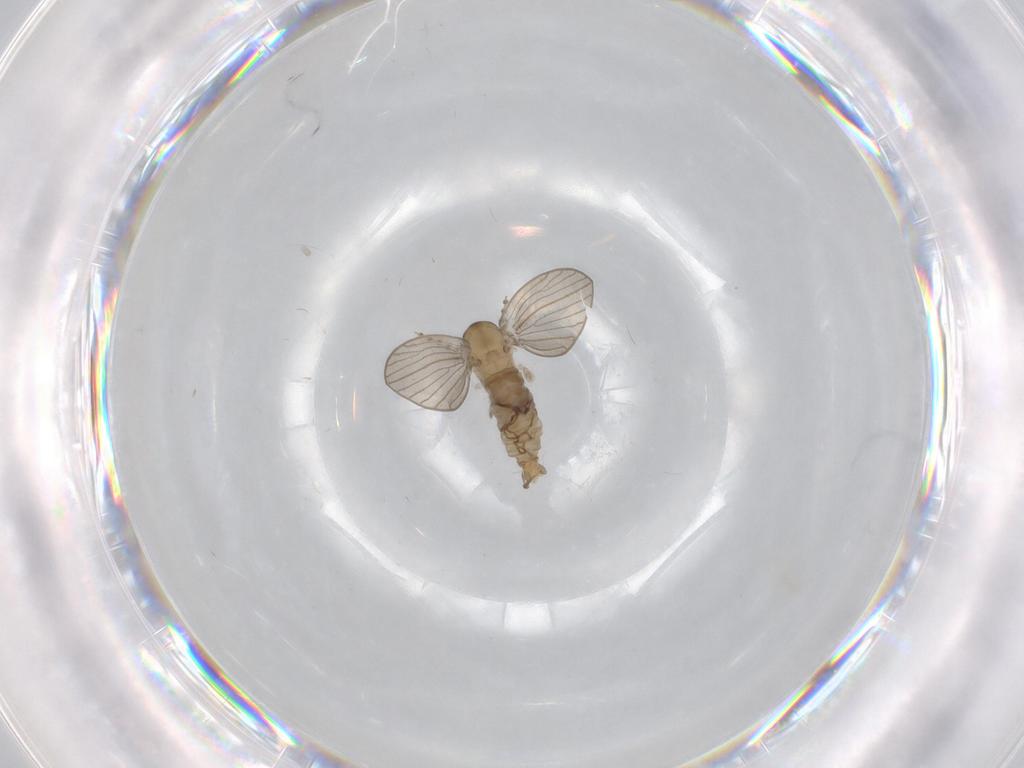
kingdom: Animalia
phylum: Arthropoda
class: Insecta
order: Diptera
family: Psychodidae
